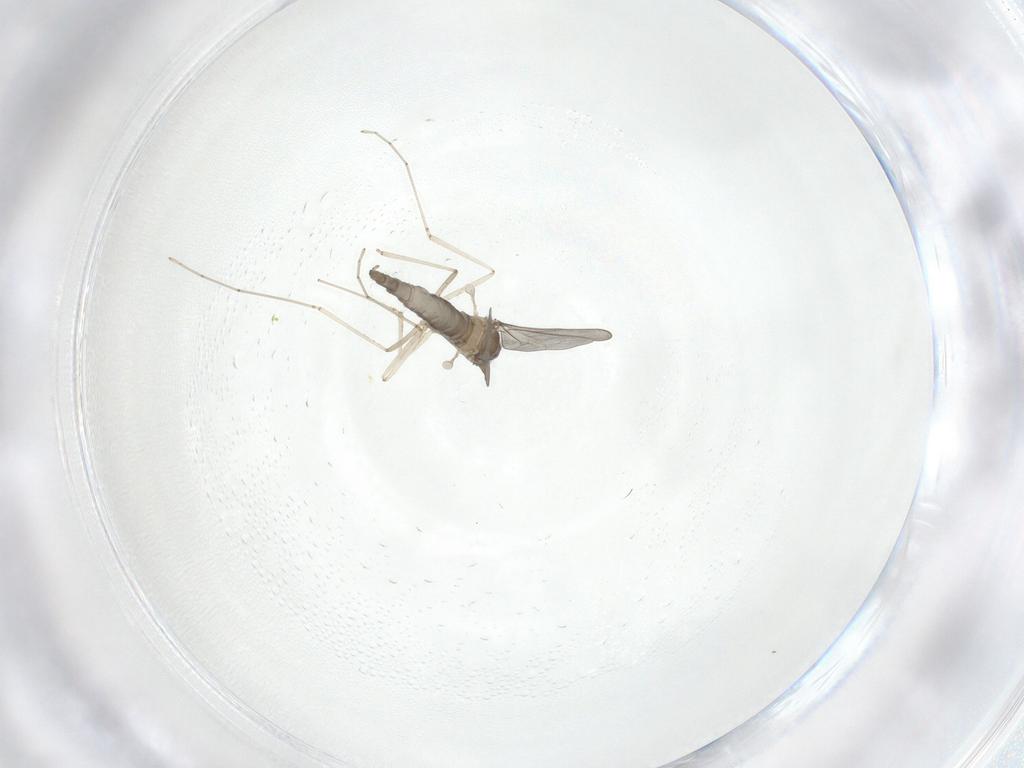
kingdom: Animalia
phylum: Arthropoda
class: Insecta
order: Diptera
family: Cecidomyiidae
